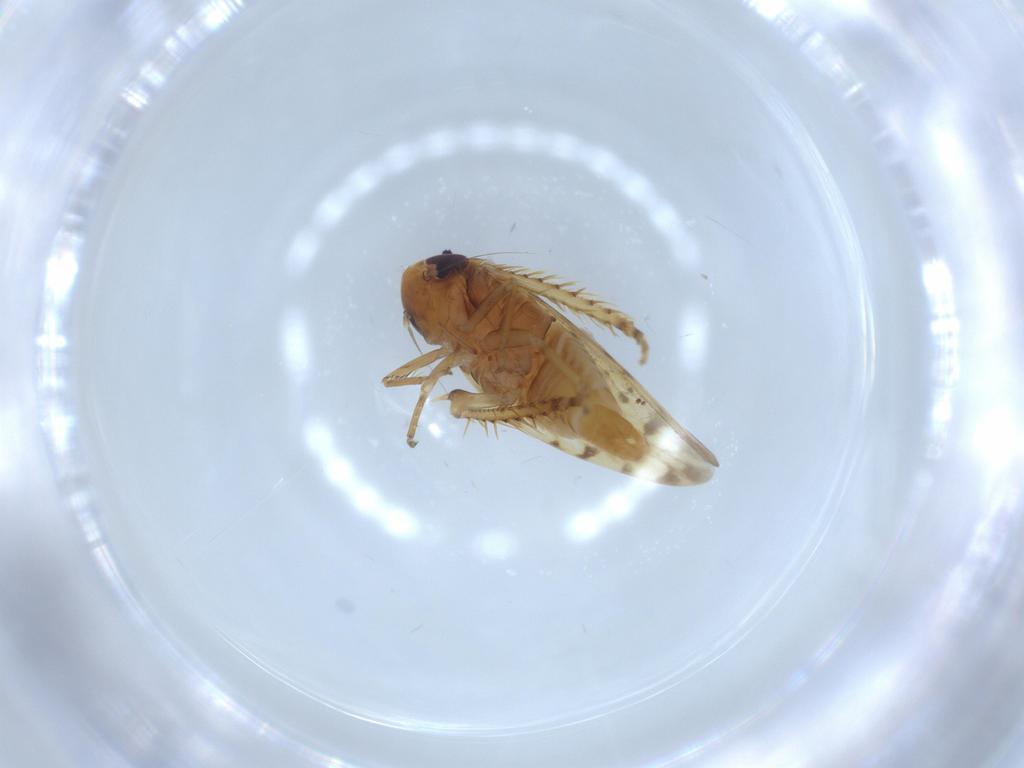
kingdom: Animalia
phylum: Arthropoda
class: Insecta
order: Hemiptera
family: Cicadellidae
